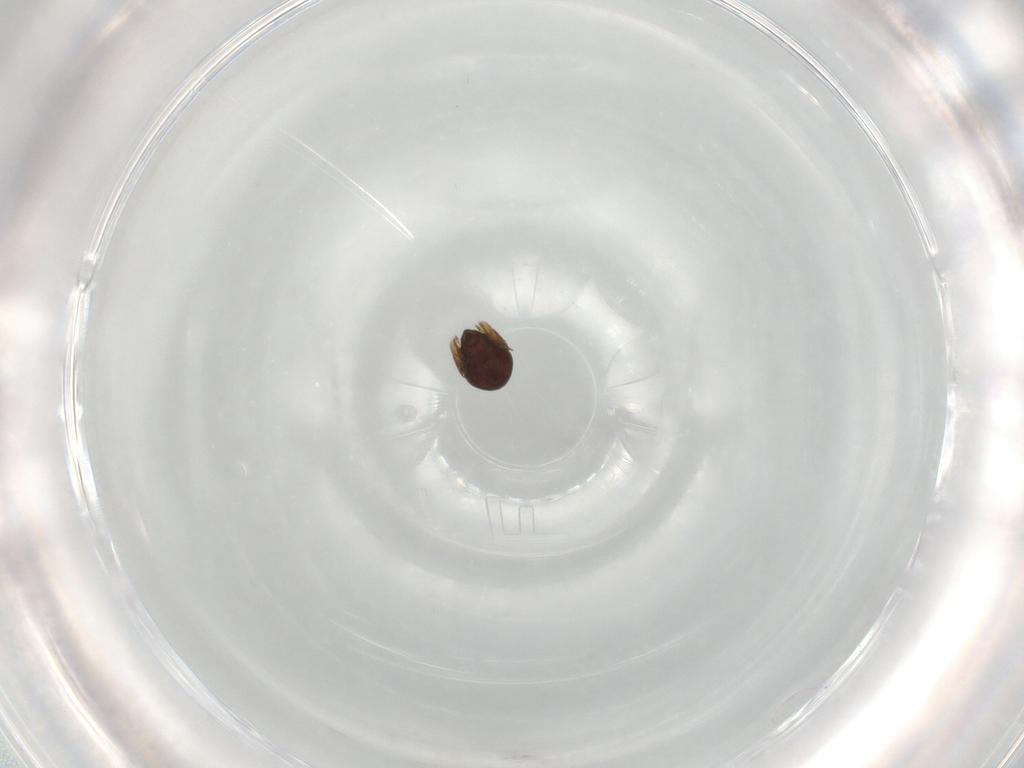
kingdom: Animalia
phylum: Arthropoda
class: Arachnida
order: Trombidiformes
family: Tarsonemidae
